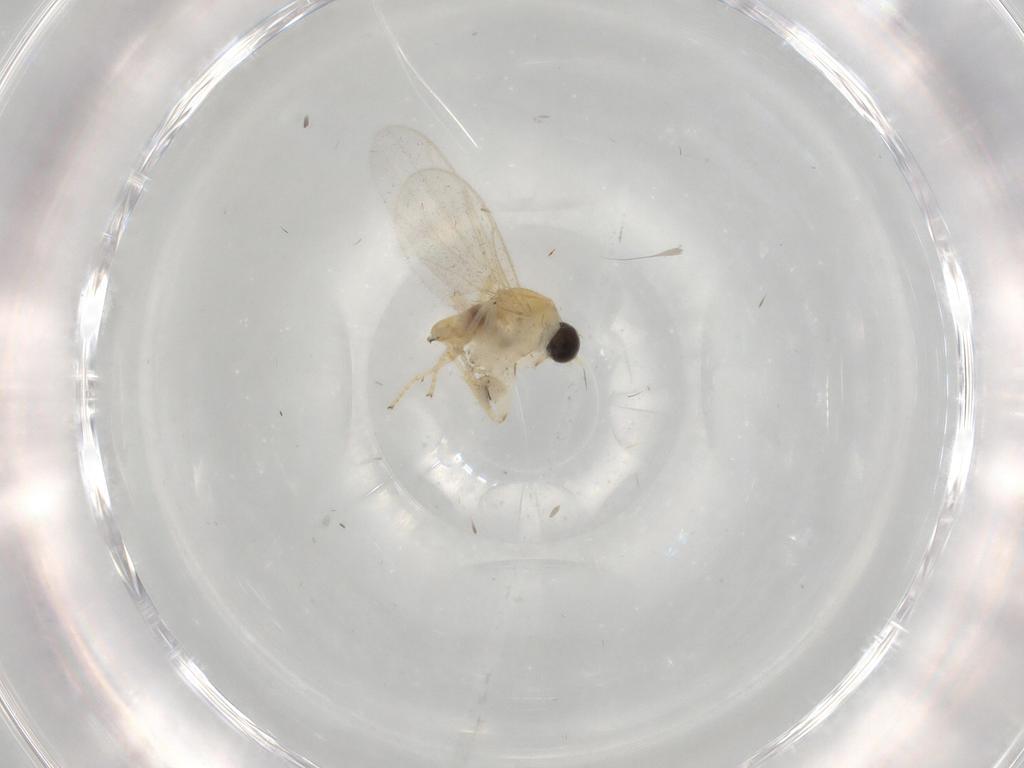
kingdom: Animalia
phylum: Arthropoda
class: Insecta
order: Diptera
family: Cecidomyiidae
